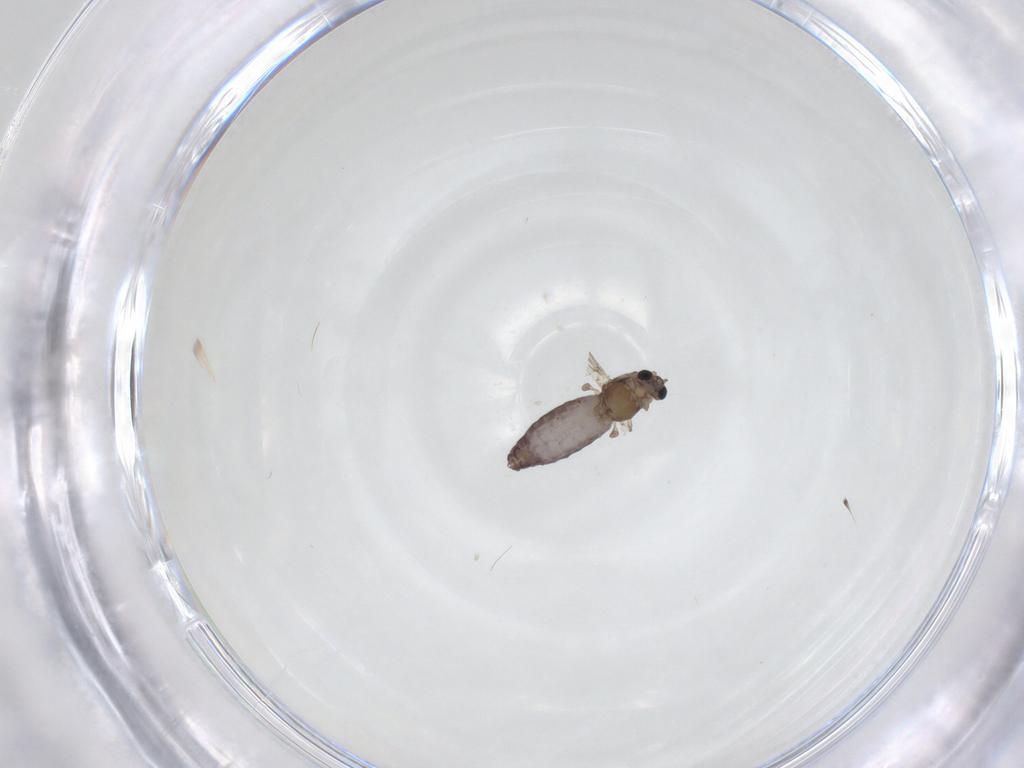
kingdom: Animalia
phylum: Arthropoda
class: Insecta
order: Diptera
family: Chironomidae
